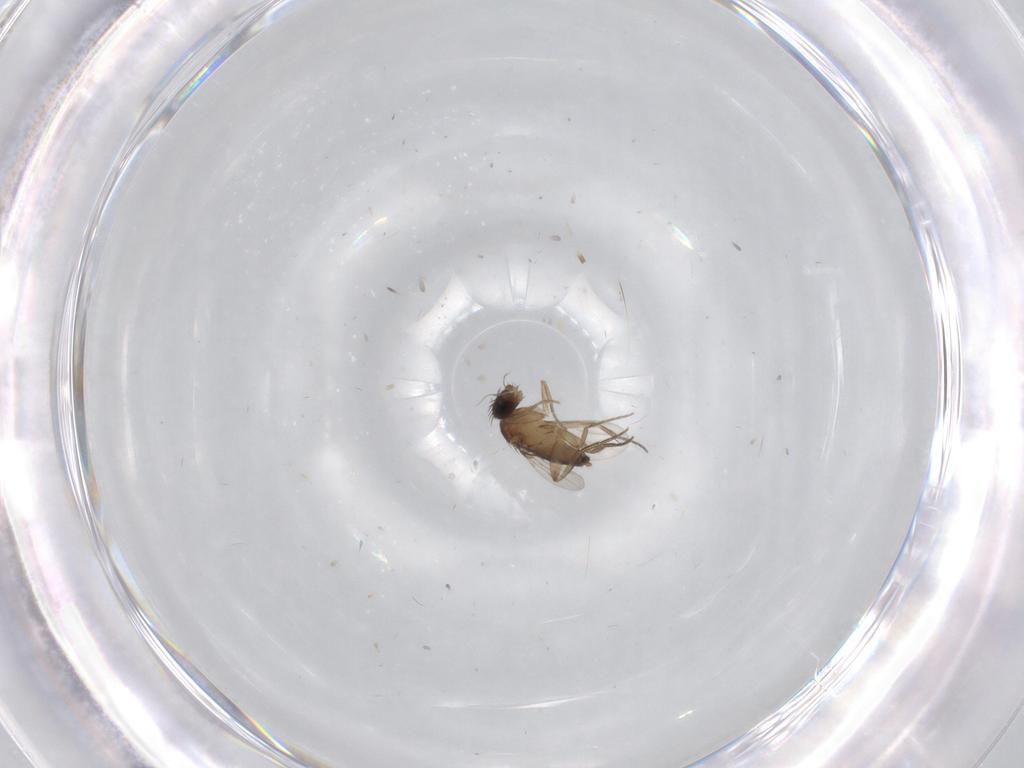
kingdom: Animalia
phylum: Arthropoda
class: Insecta
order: Diptera
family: Phoridae
